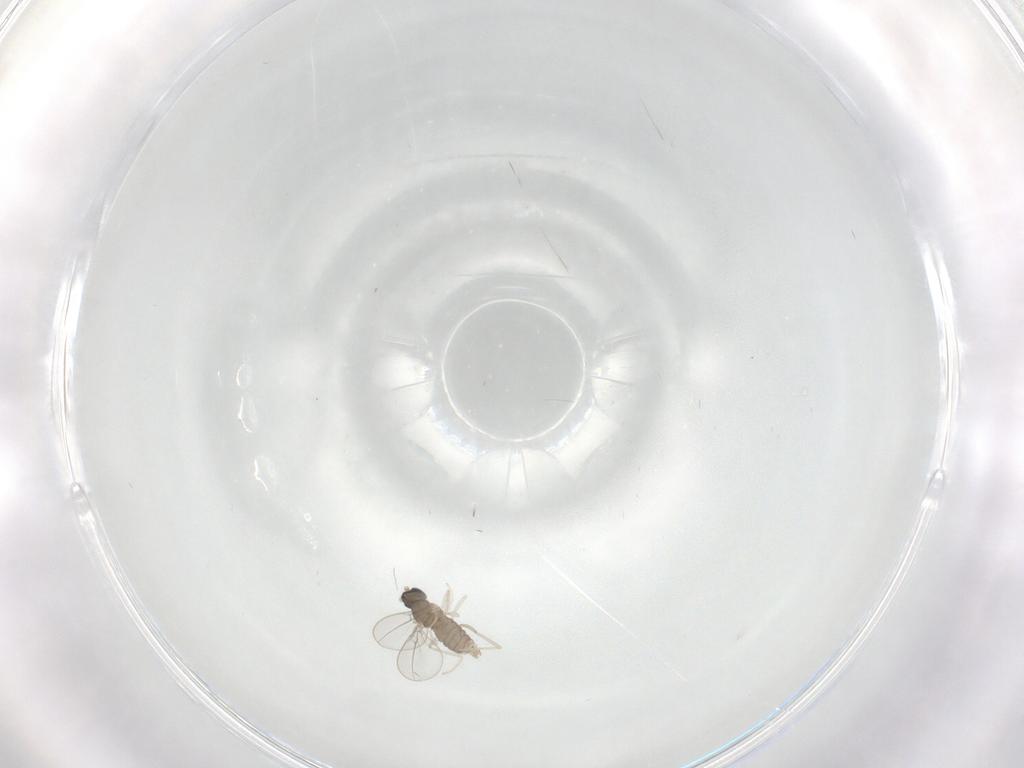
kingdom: Animalia
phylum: Arthropoda
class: Insecta
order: Diptera
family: Cecidomyiidae
